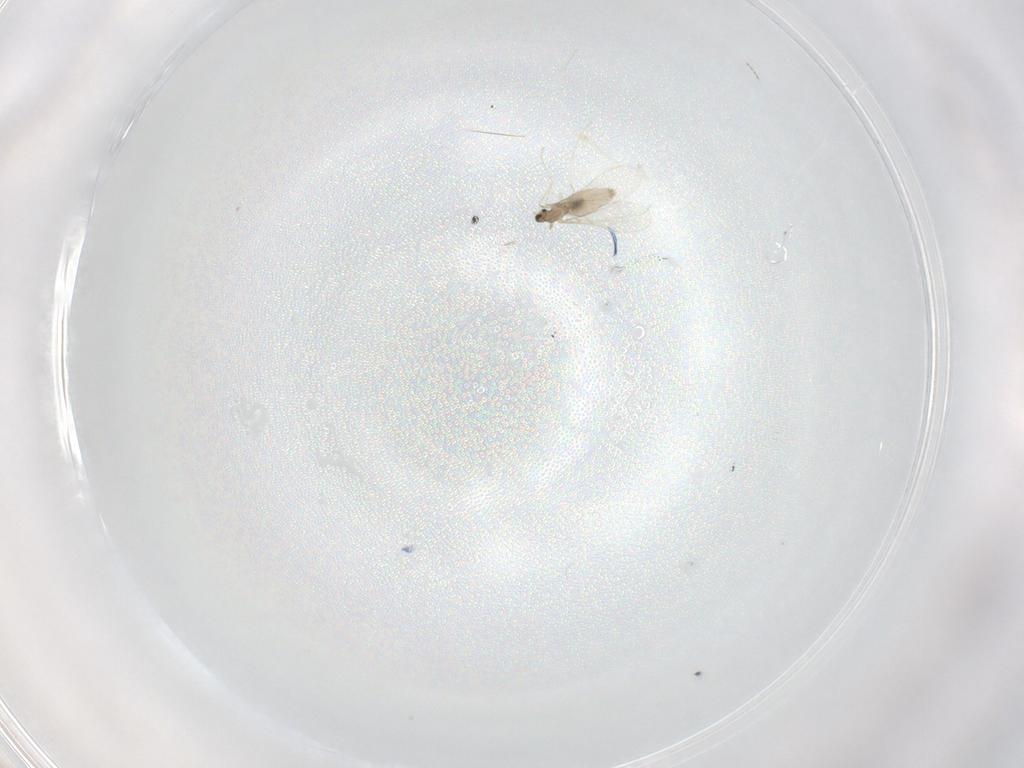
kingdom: Animalia
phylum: Arthropoda
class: Insecta
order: Diptera
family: Cecidomyiidae
